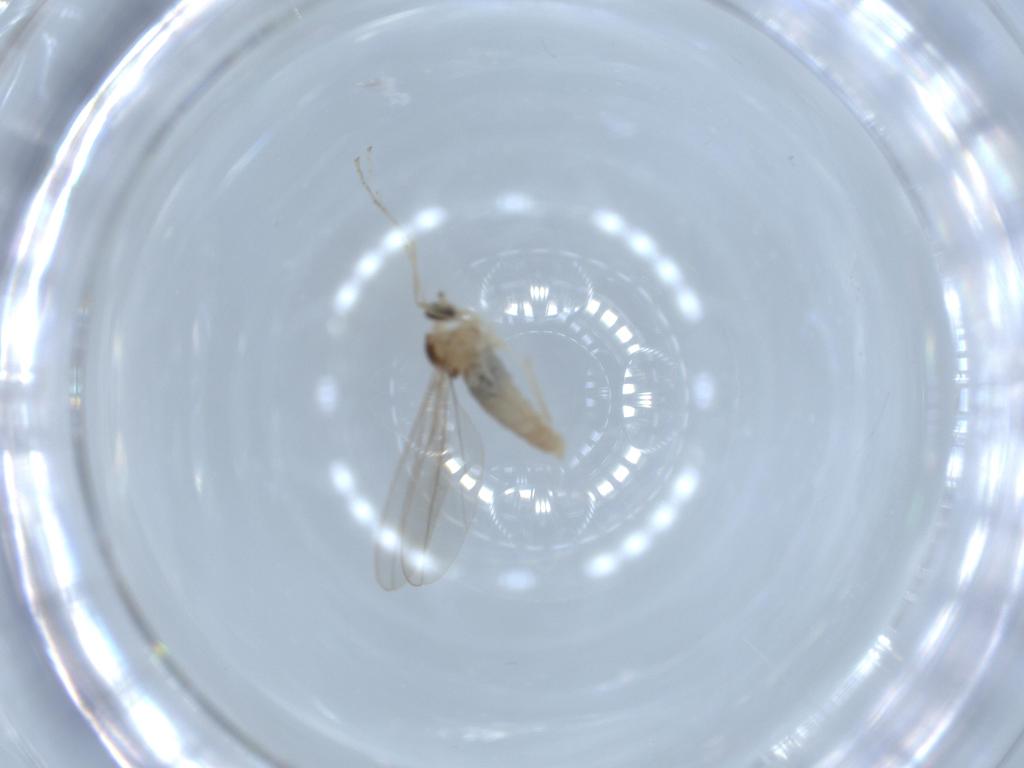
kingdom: Animalia
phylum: Arthropoda
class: Insecta
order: Diptera
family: Cecidomyiidae
